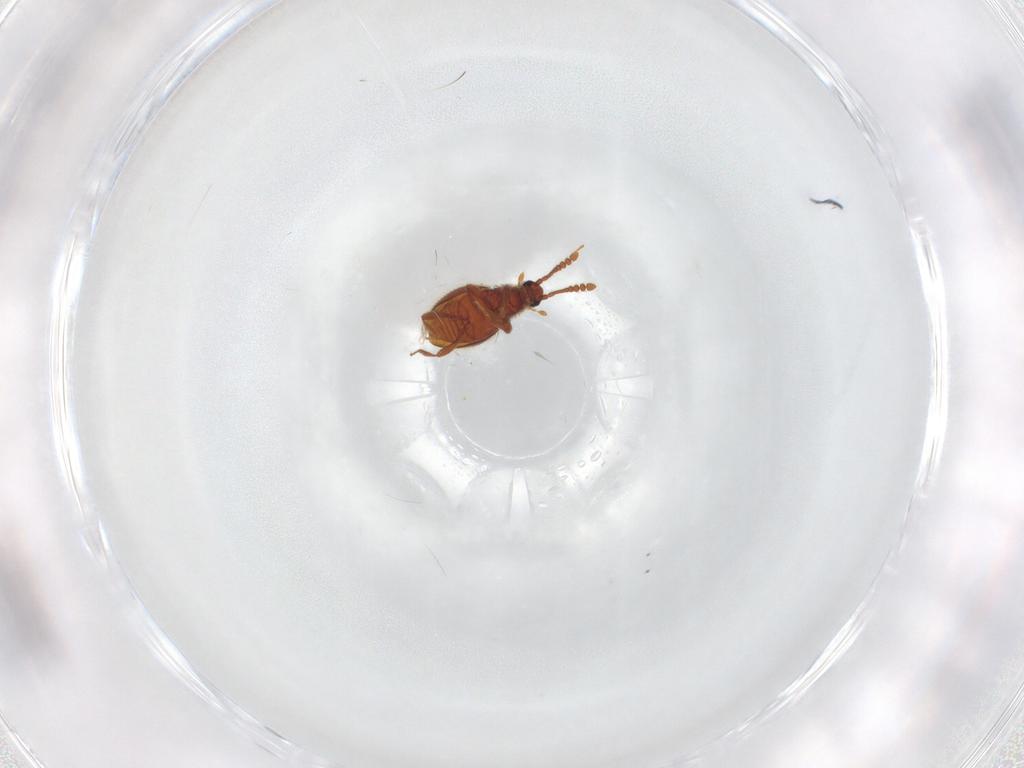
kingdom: Animalia
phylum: Arthropoda
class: Insecta
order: Coleoptera
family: Staphylinidae
